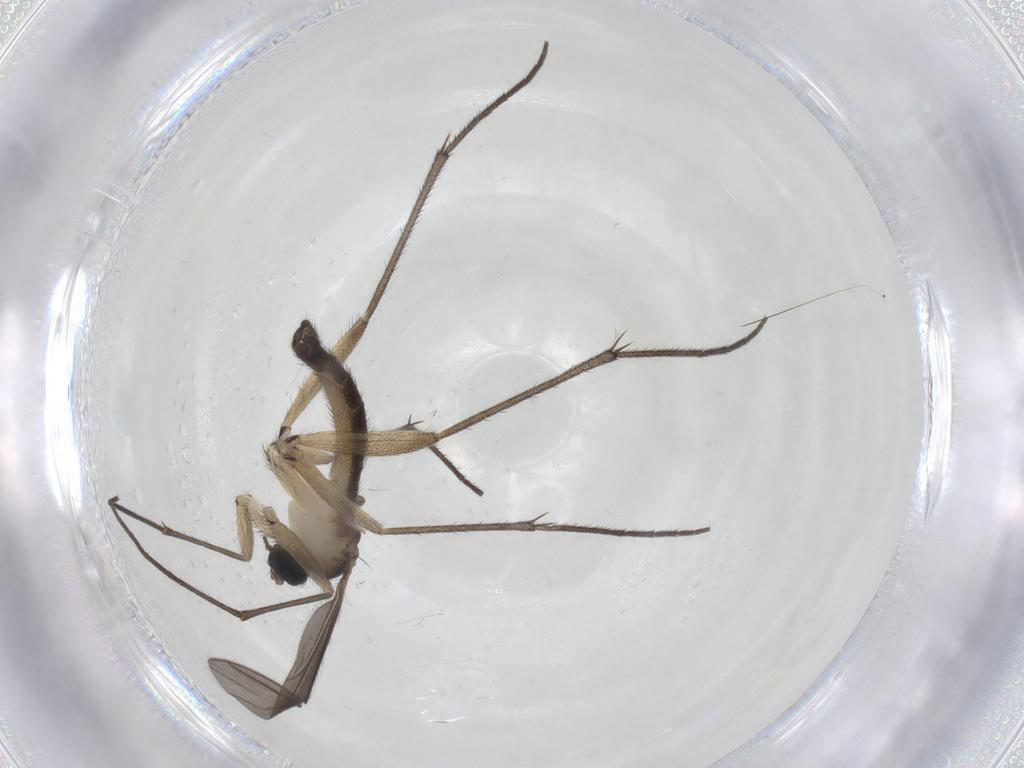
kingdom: Animalia
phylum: Arthropoda
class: Insecta
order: Diptera
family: Sciaridae
